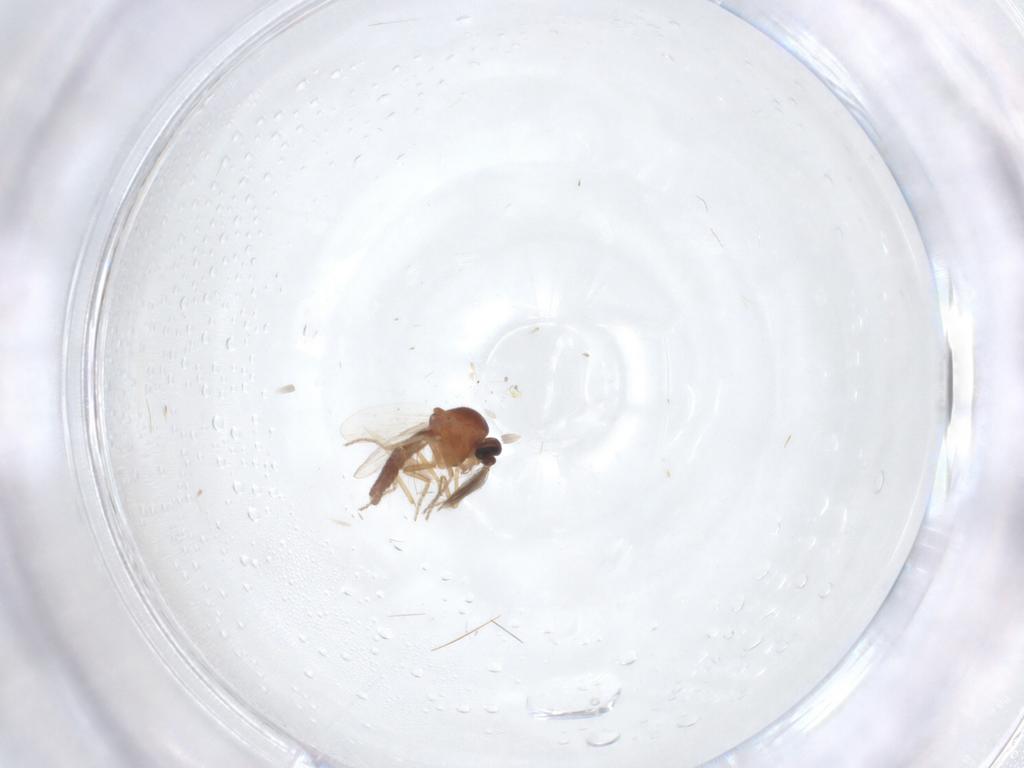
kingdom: Animalia
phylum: Arthropoda
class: Insecta
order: Diptera
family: Ceratopogonidae
